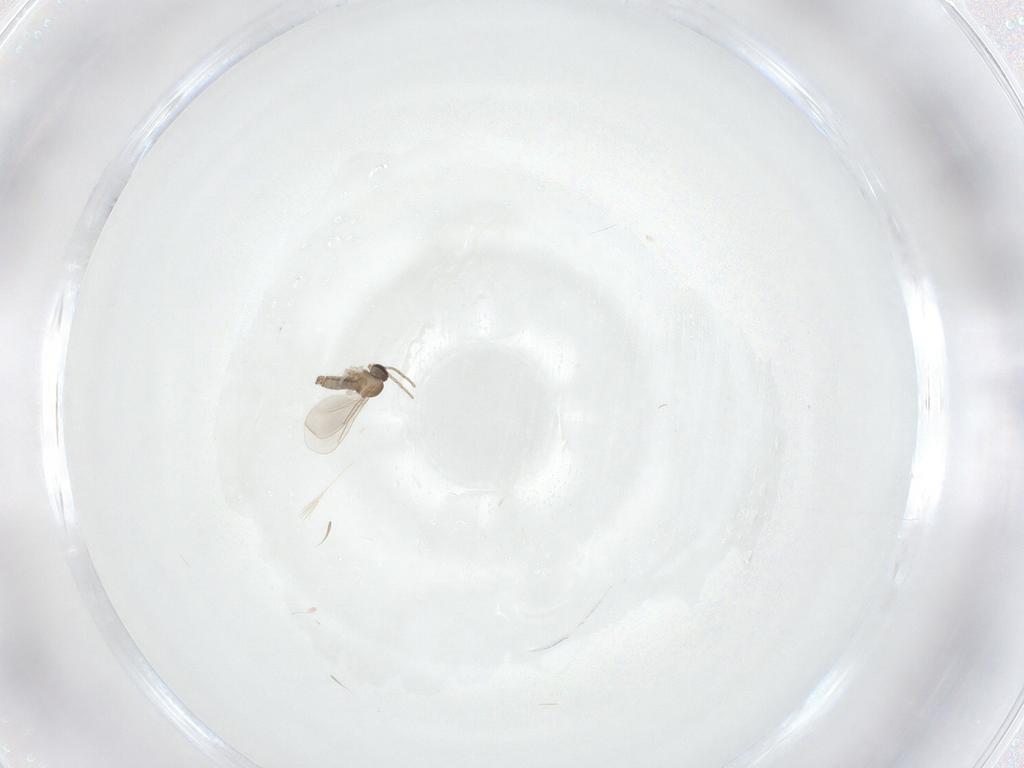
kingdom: Animalia
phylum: Arthropoda
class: Insecta
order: Diptera
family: Cecidomyiidae
